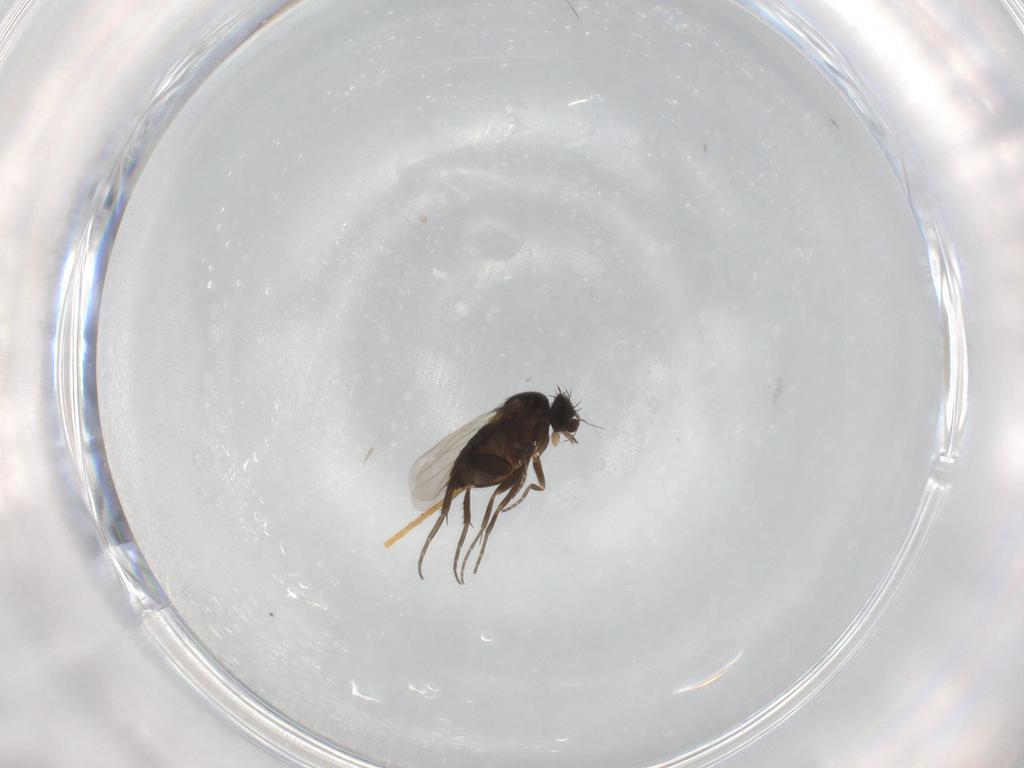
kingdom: Animalia
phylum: Arthropoda
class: Insecta
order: Diptera
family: Phoridae
